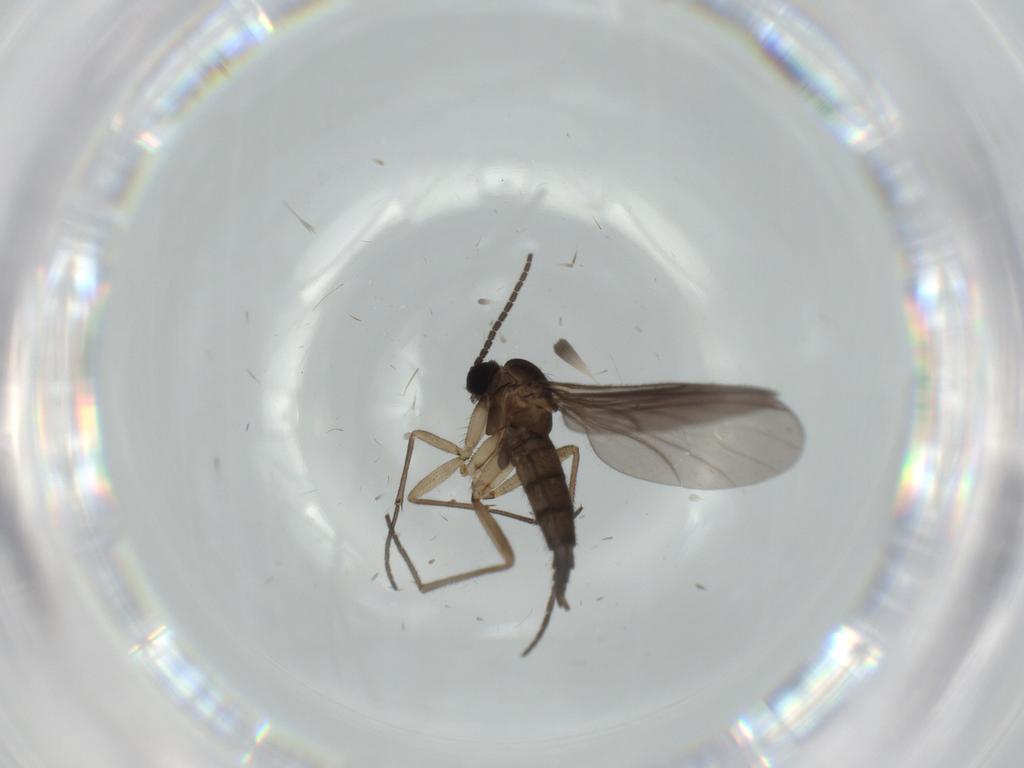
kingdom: Animalia
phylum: Arthropoda
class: Insecta
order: Diptera
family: Sciaridae
